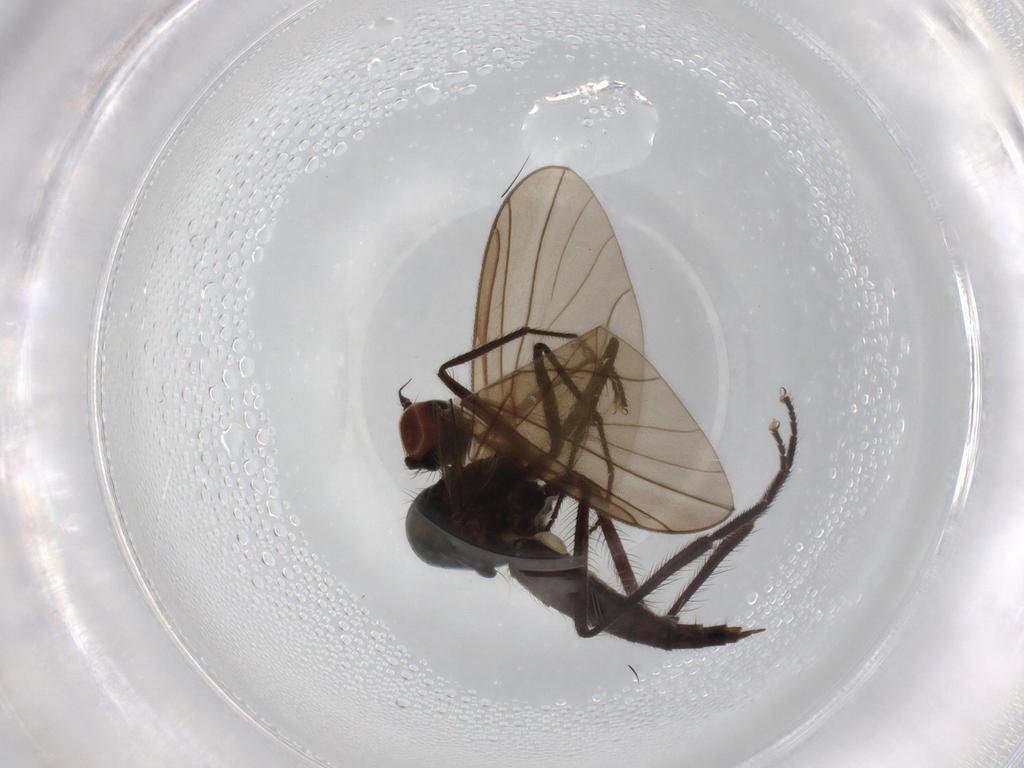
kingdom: Animalia
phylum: Arthropoda
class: Insecta
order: Diptera
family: Hybotidae
